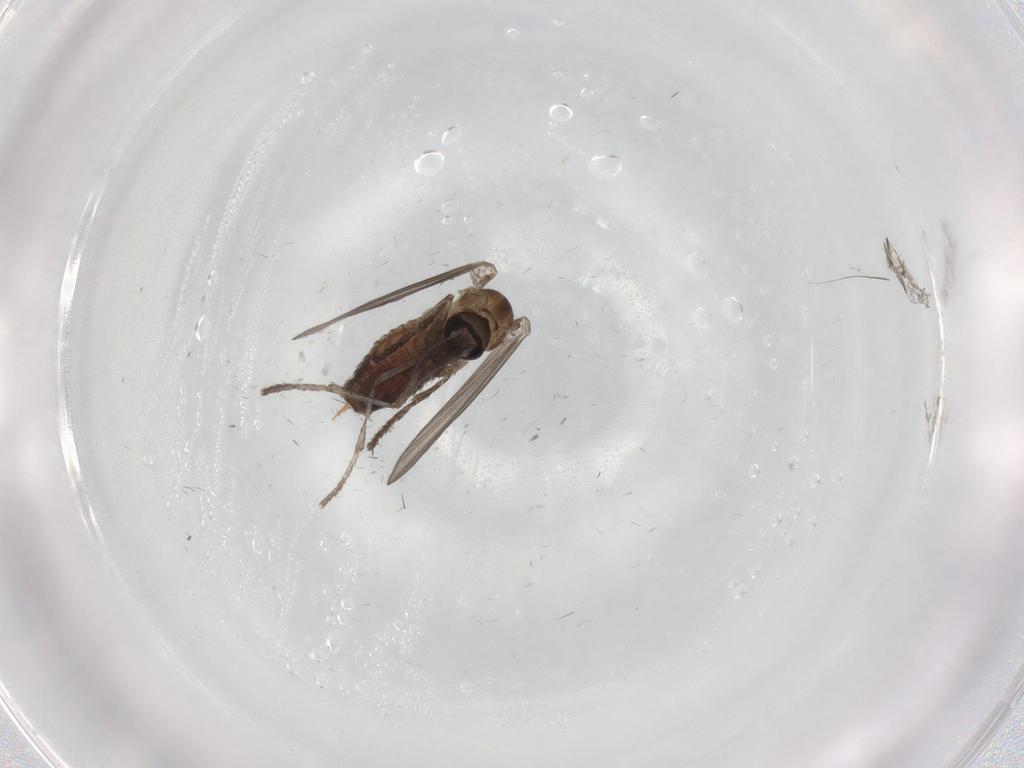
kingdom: Animalia
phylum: Arthropoda
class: Insecta
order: Diptera
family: Psychodidae
